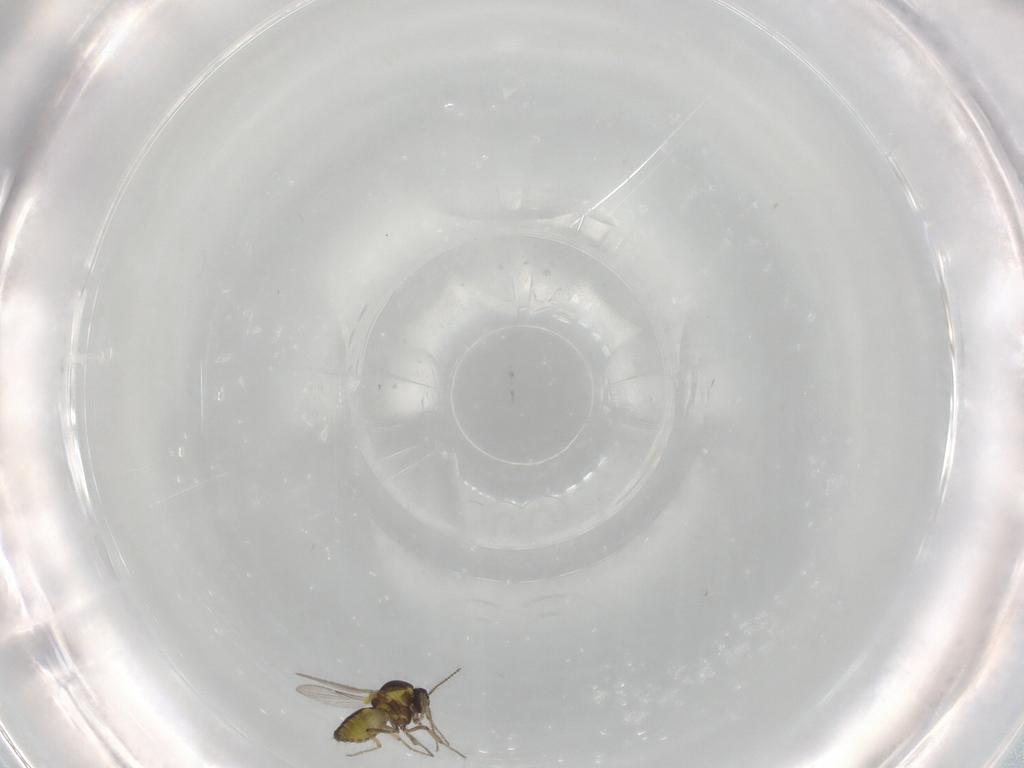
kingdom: Animalia
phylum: Arthropoda
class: Insecta
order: Diptera
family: Ceratopogonidae
